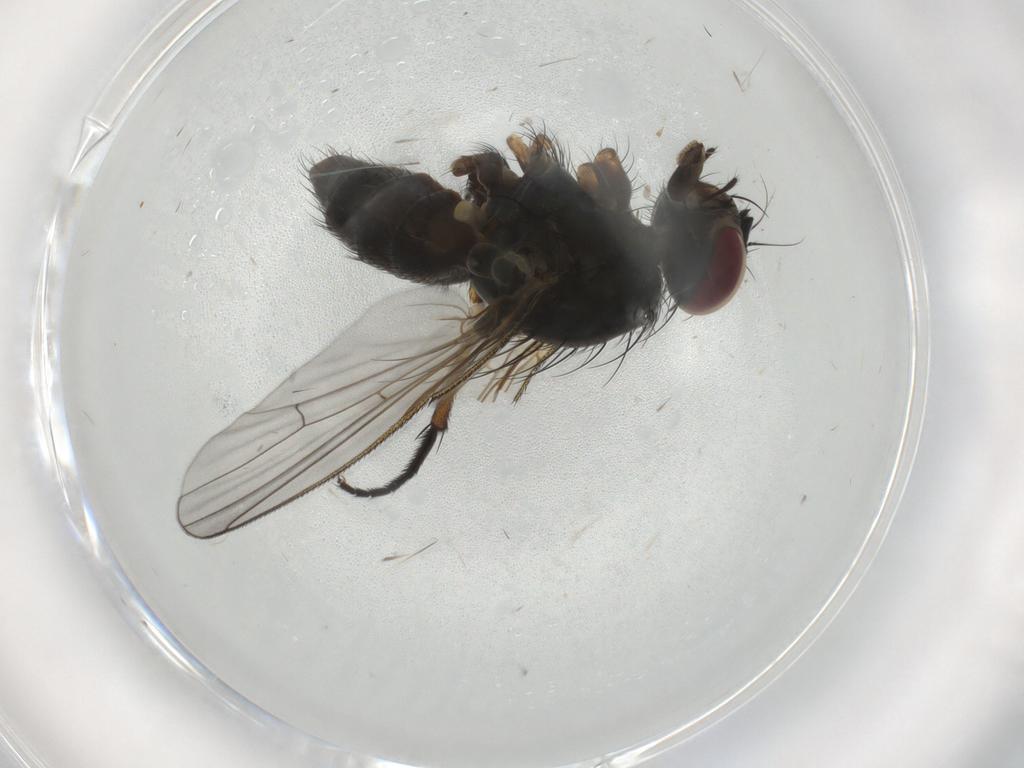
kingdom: Animalia
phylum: Arthropoda
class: Insecta
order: Diptera
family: Muscidae
